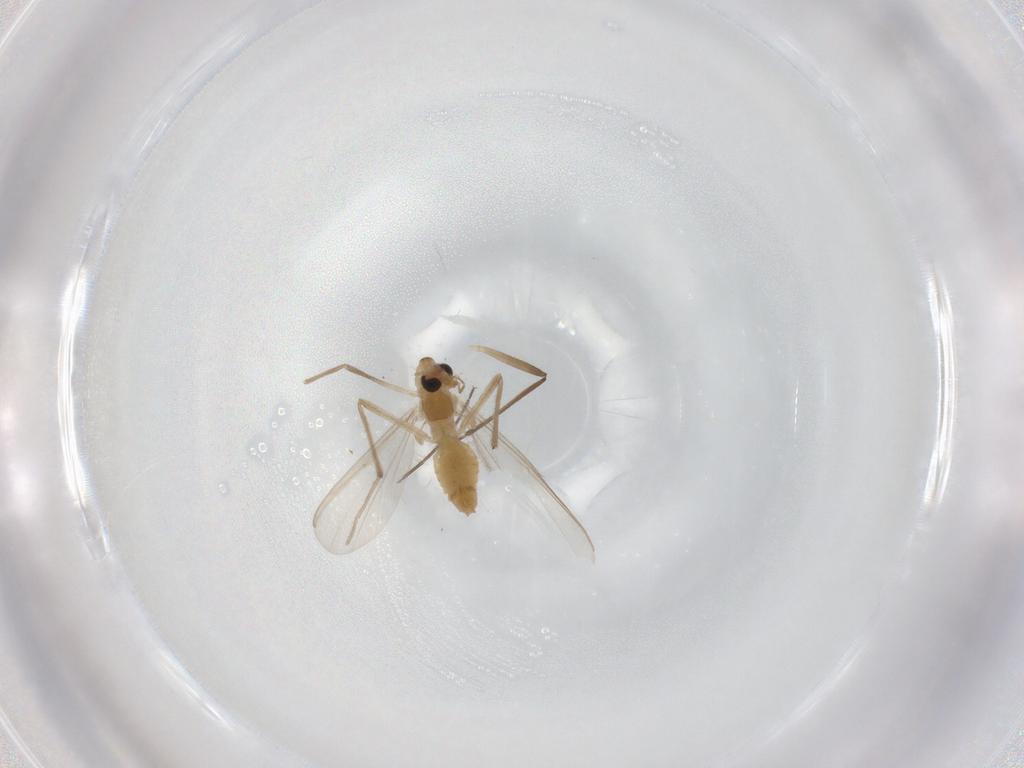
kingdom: Animalia
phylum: Arthropoda
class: Insecta
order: Diptera
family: Chironomidae
